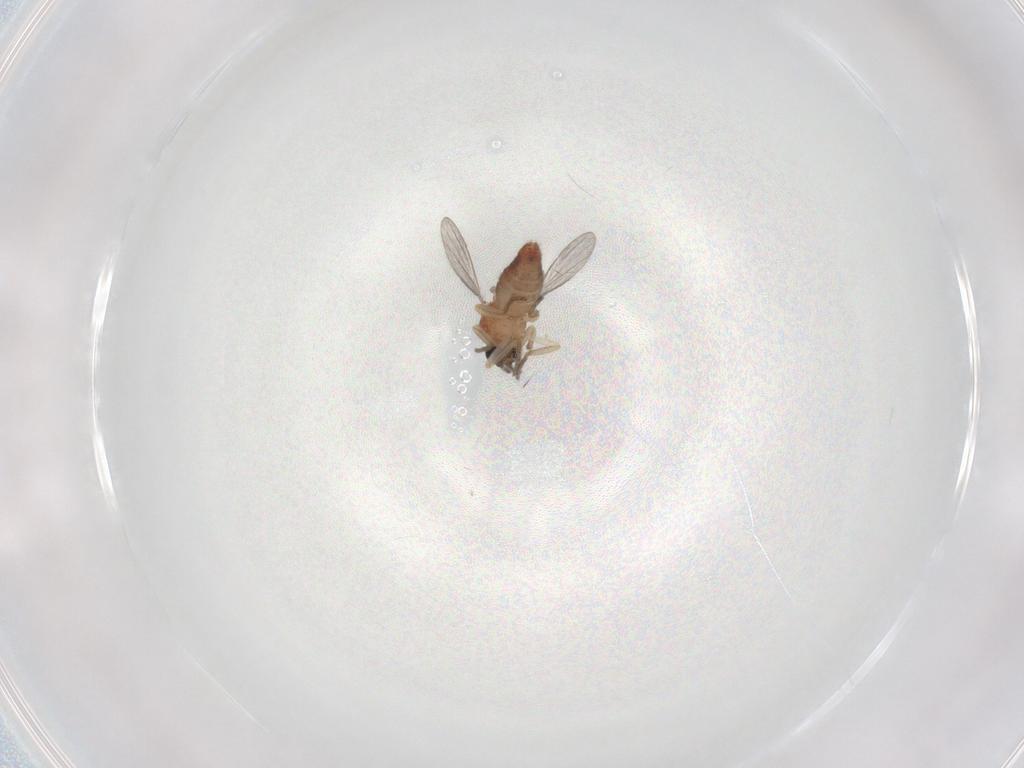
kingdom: Animalia
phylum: Arthropoda
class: Insecta
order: Diptera
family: Ceratopogonidae
